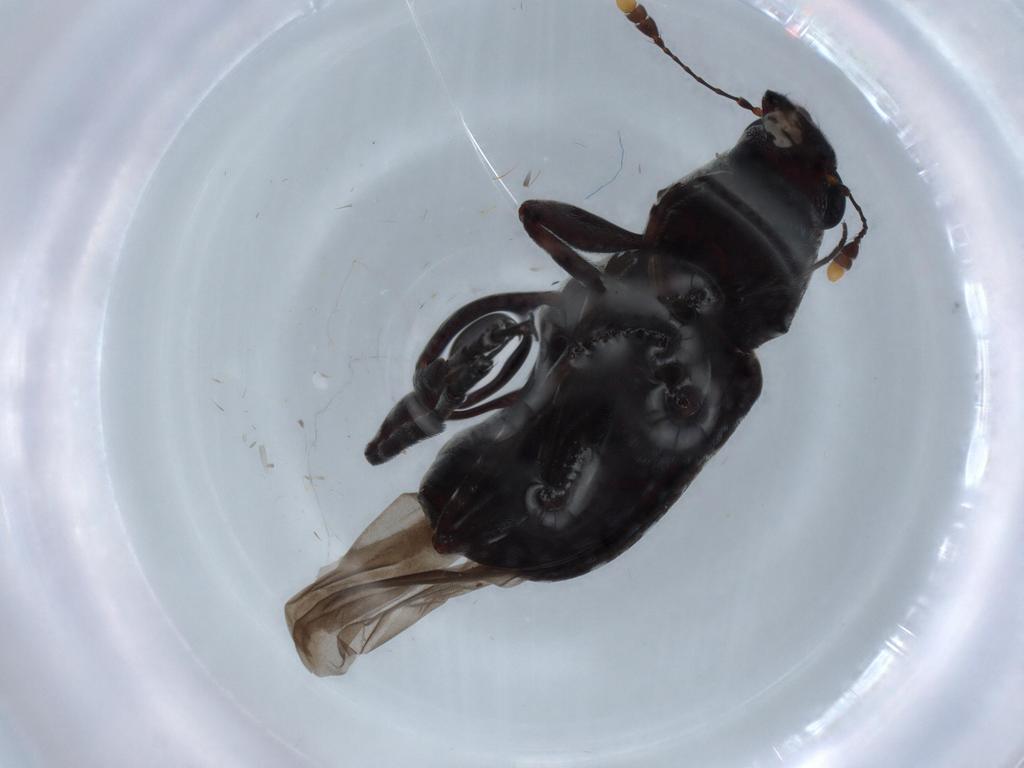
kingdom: Animalia
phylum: Arthropoda
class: Insecta
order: Coleoptera
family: Anthribidae
